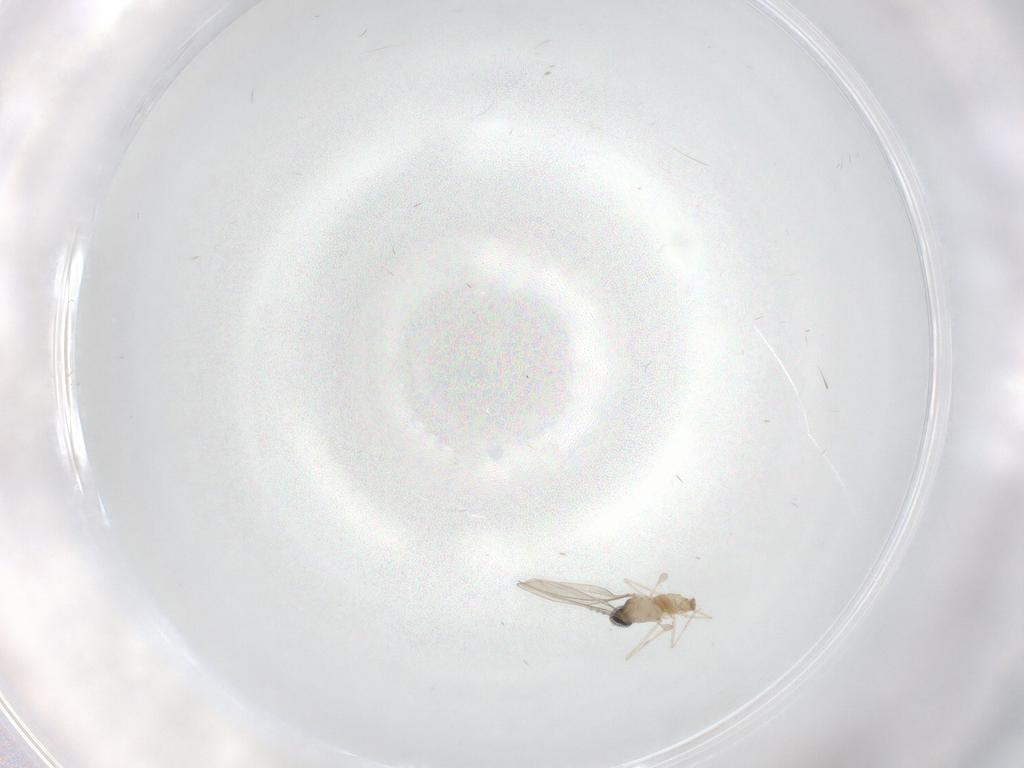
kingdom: Animalia
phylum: Arthropoda
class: Insecta
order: Diptera
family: Cecidomyiidae
